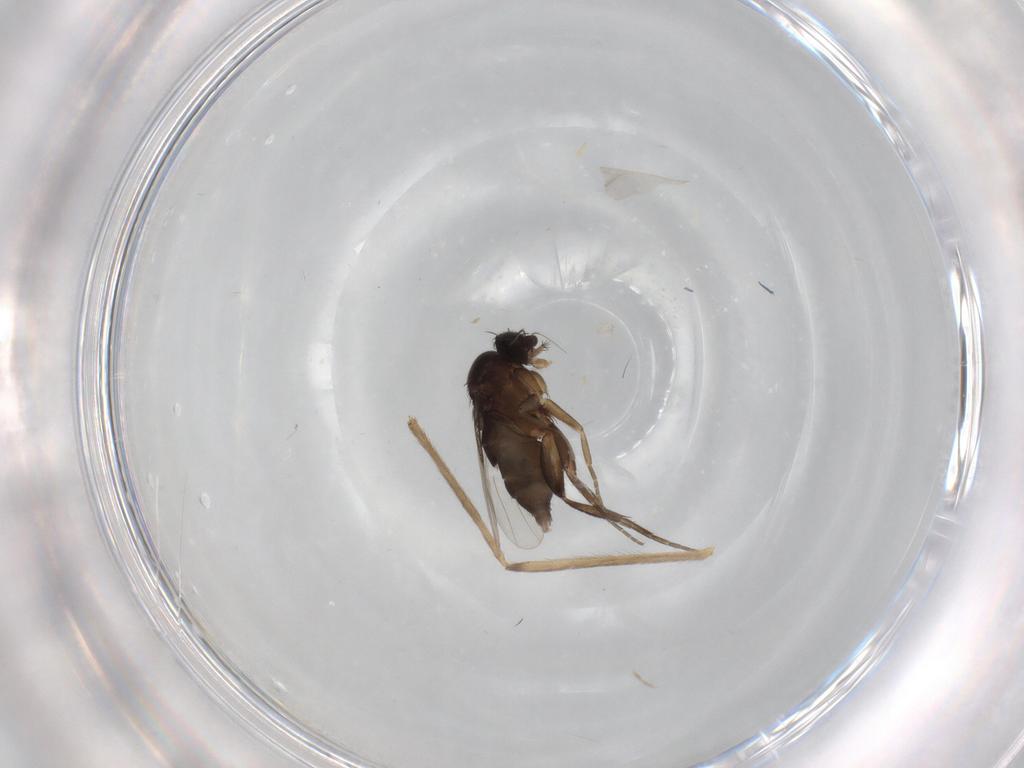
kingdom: Animalia
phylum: Arthropoda
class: Insecta
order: Diptera
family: Phoridae
